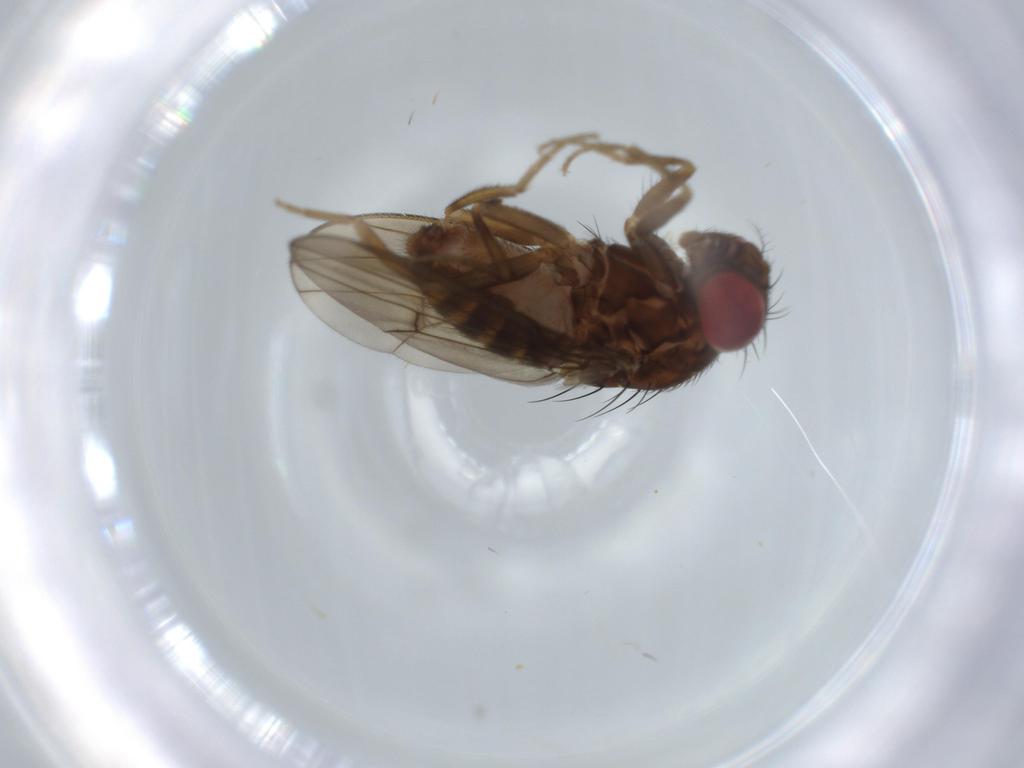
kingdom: Animalia
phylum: Arthropoda
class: Insecta
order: Diptera
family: Drosophilidae
